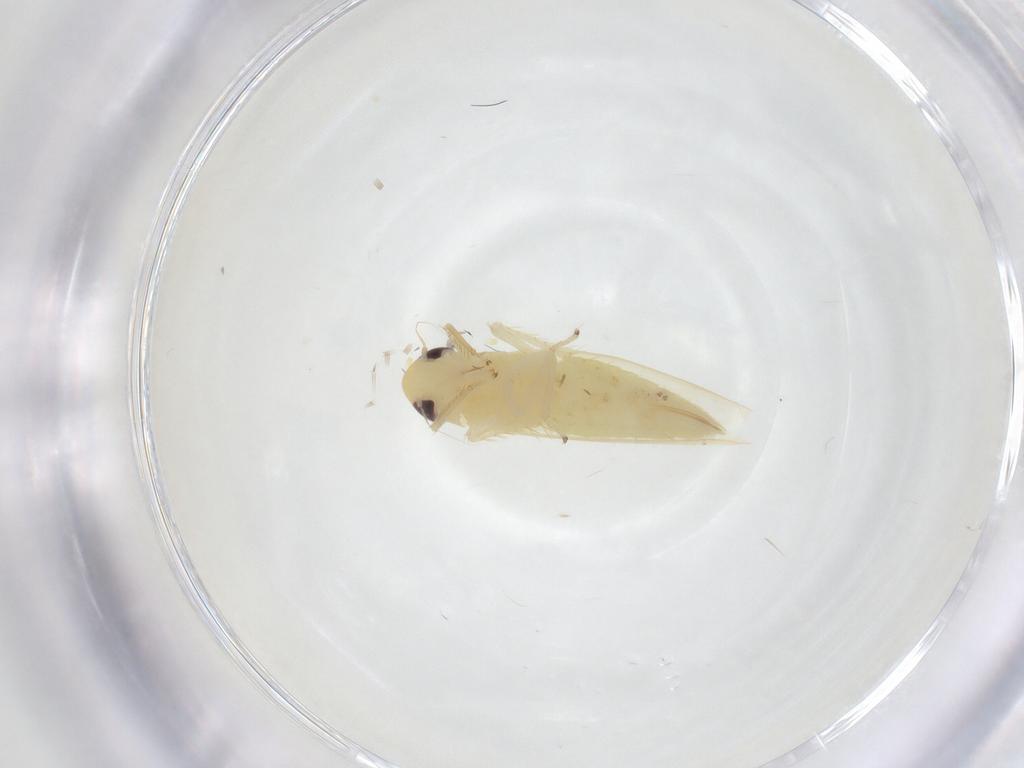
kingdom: Animalia
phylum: Arthropoda
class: Insecta
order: Hemiptera
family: Cicadellidae
